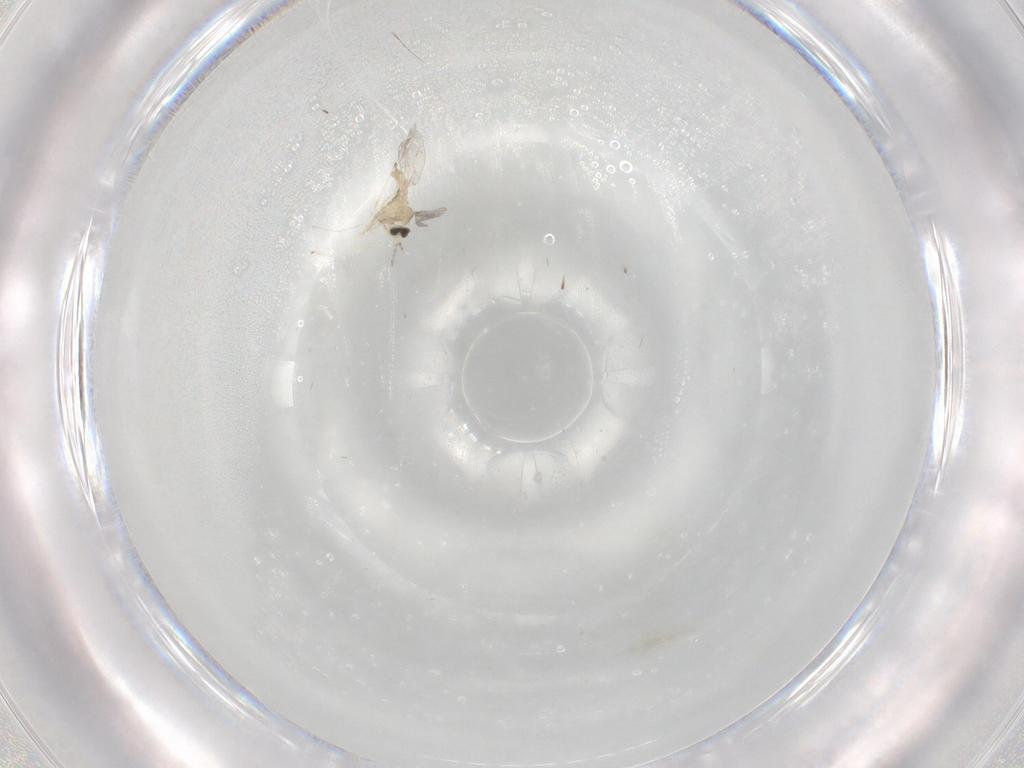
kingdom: Animalia
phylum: Arthropoda
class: Insecta
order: Diptera
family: Cecidomyiidae
